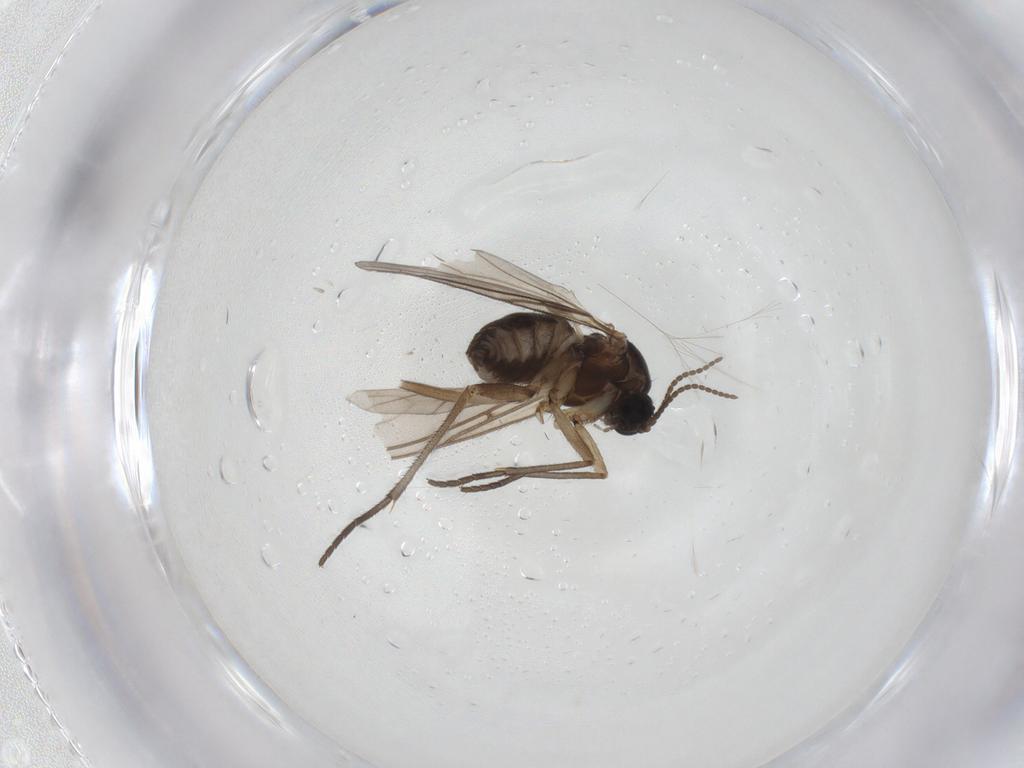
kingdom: Animalia
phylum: Arthropoda
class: Insecta
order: Diptera
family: Sciaridae
